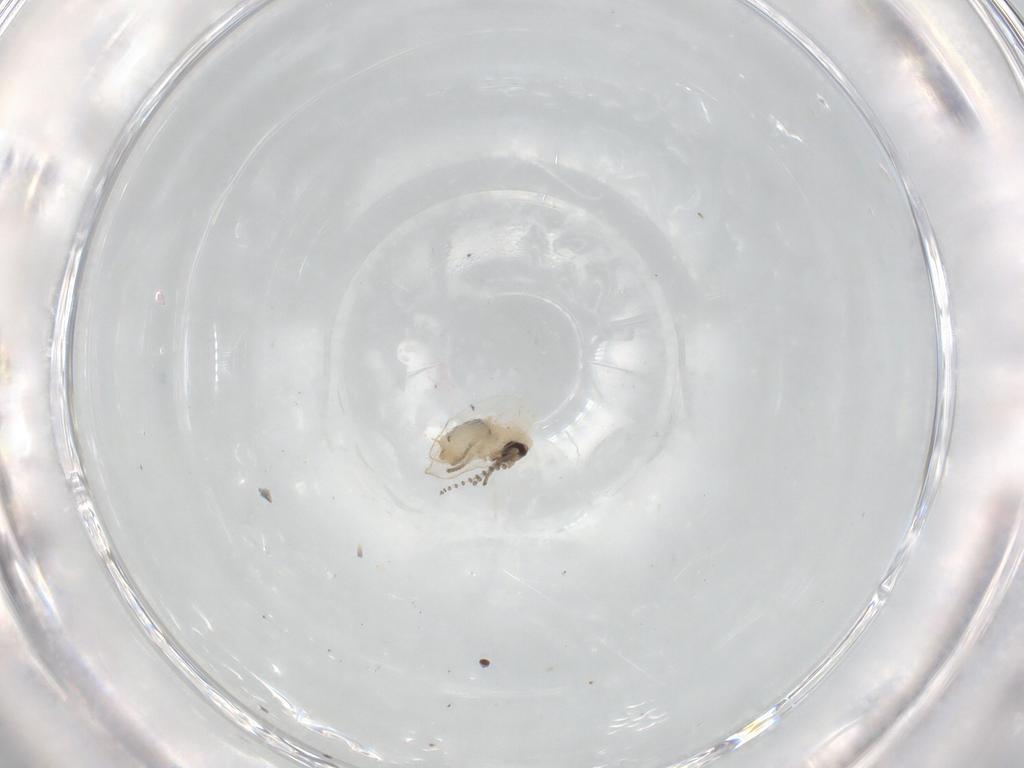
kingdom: Animalia
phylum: Arthropoda
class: Insecta
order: Diptera
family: Psychodidae
